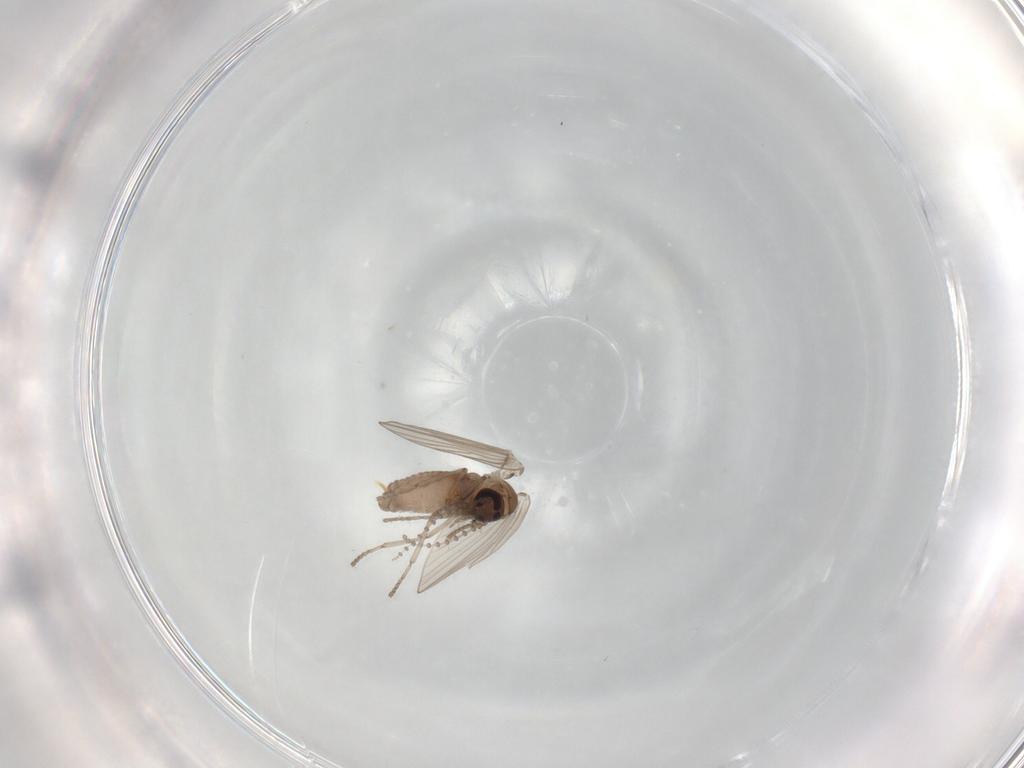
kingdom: Animalia
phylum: Arthropoda
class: Insecta
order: Diptera
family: Psychodidae
